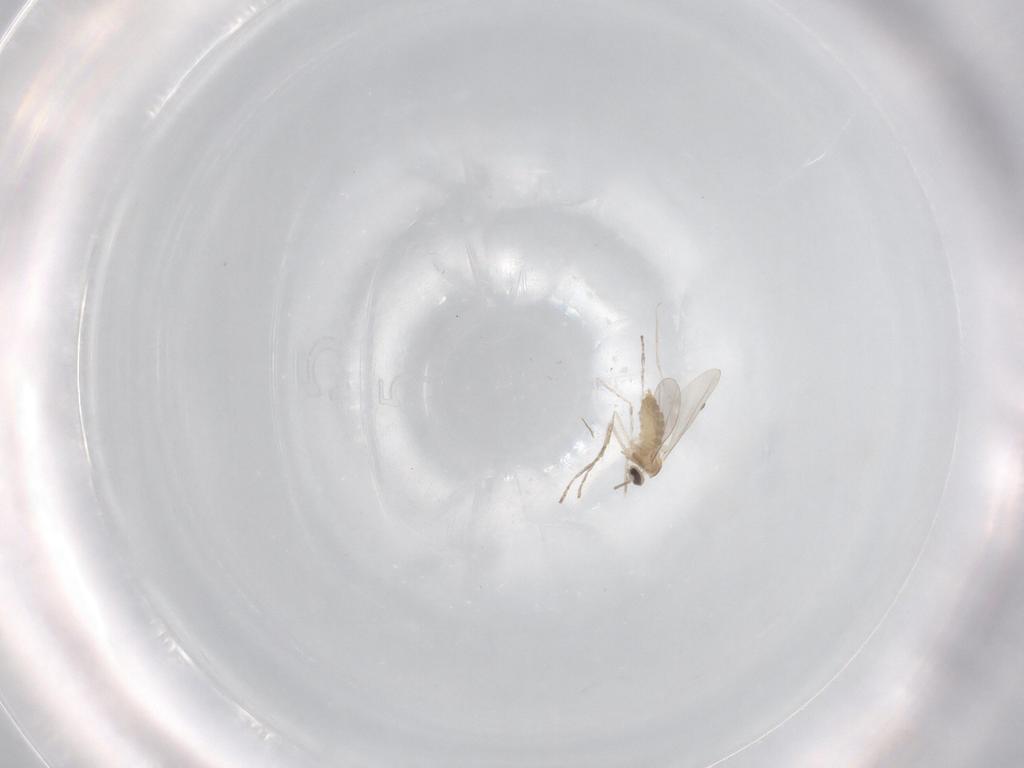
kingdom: Animalia
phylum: Arthropoda
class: Insecta
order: Diptera
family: Cecidomyiidae
